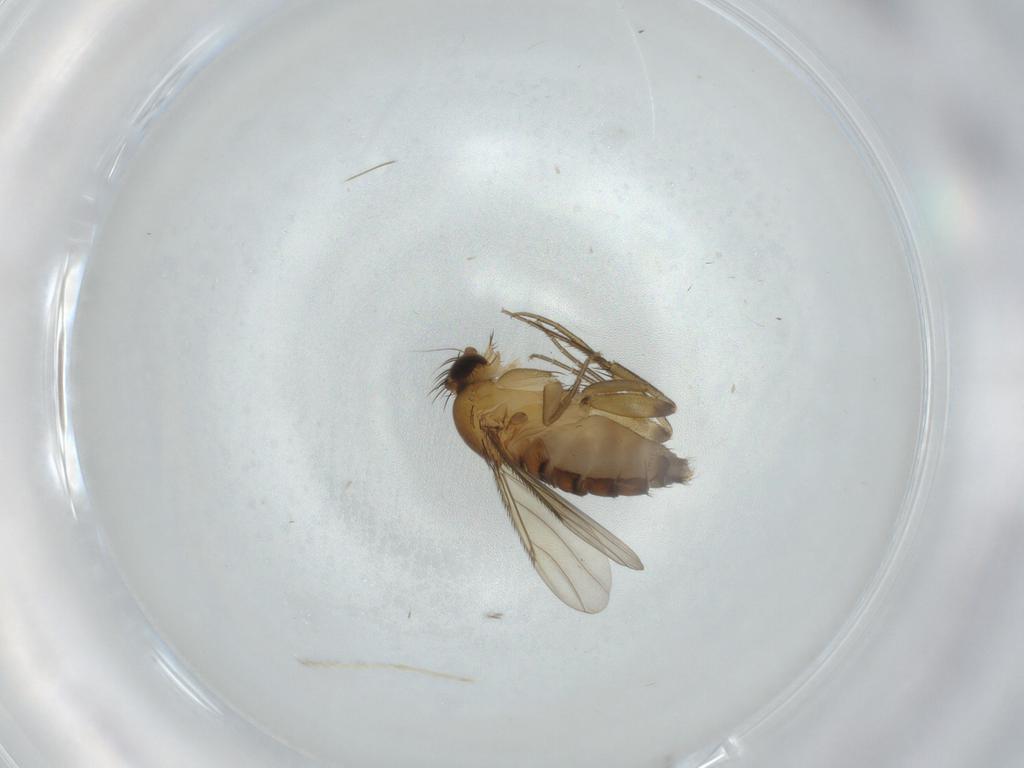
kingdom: Animalia
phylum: Arthropoda
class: Insecta
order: Diptera
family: Phoridae
